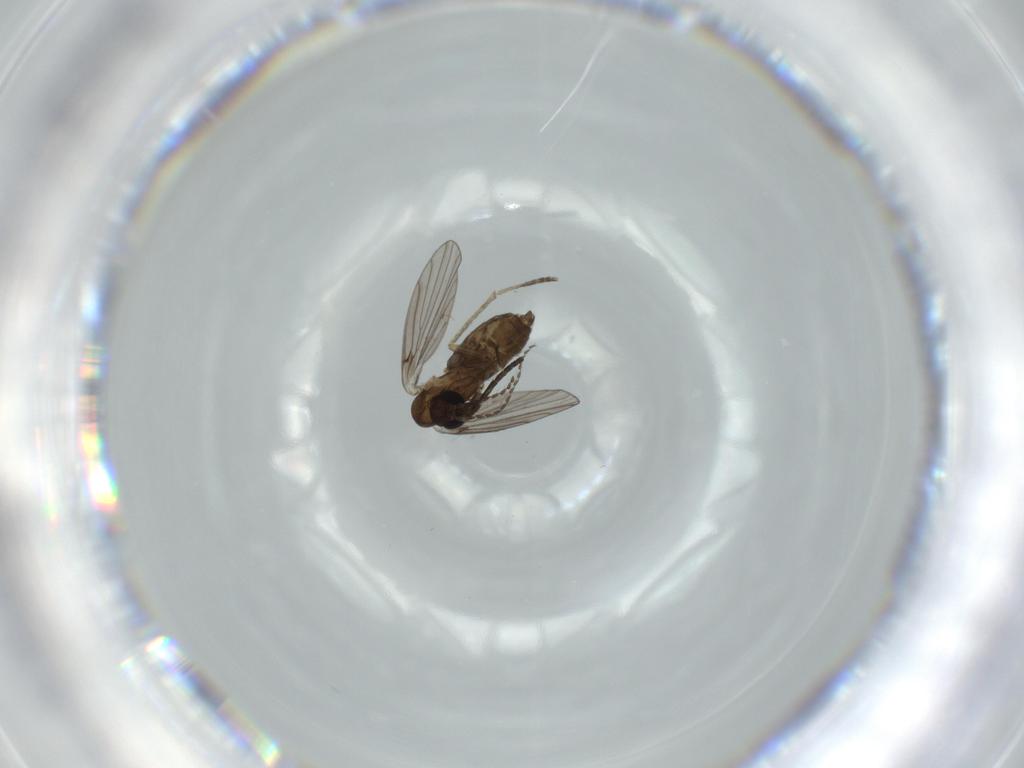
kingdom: Animalia
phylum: Arthropoda
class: Insecta
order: Diptera
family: Psychodidae
